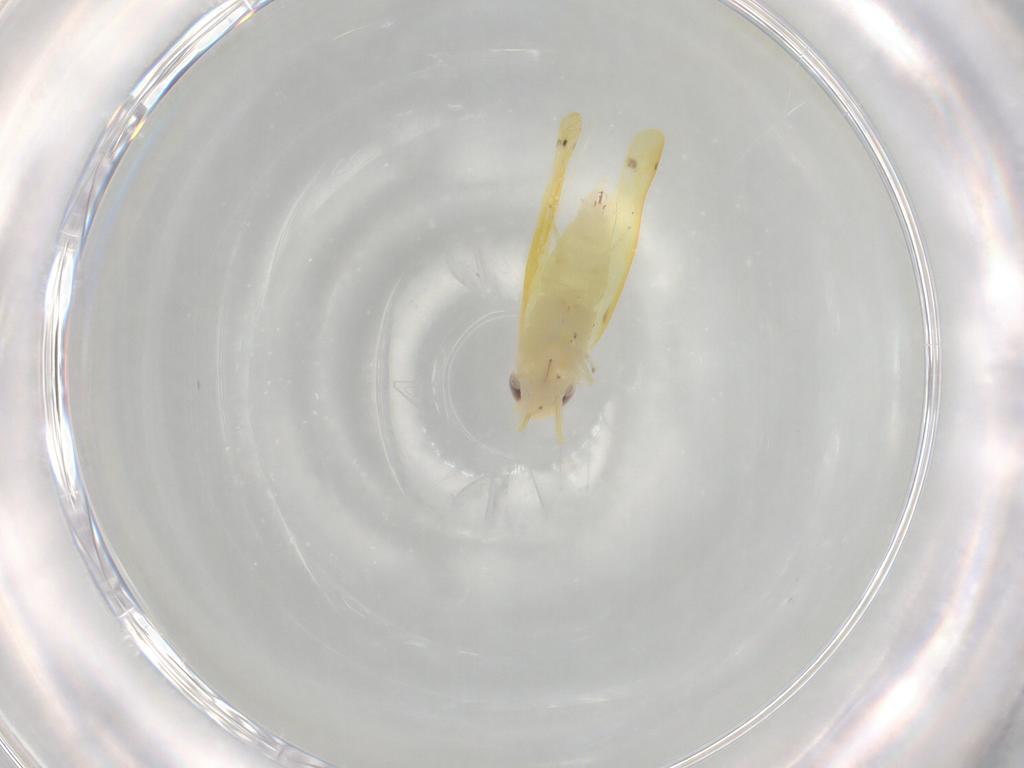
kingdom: Animalia
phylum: Arthropoda
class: Insecta
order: Hemiptera
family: Cicadellidae
